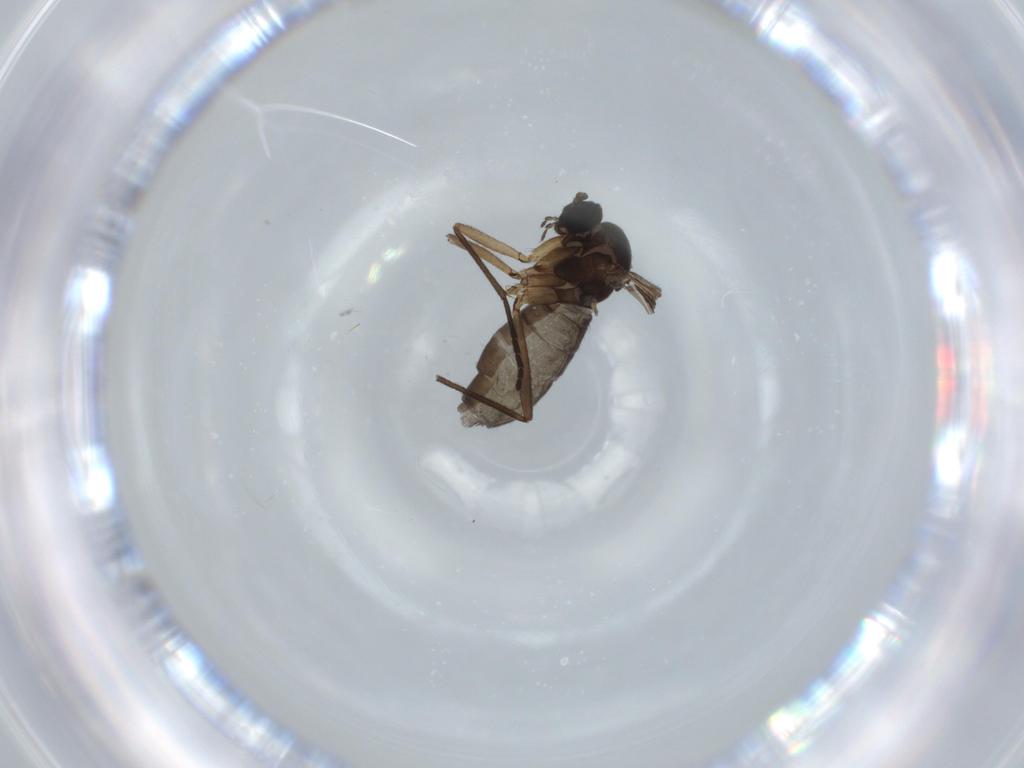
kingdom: Animalia
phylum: Arthropoda
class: Insecta
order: Diptera
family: Sciaridae
